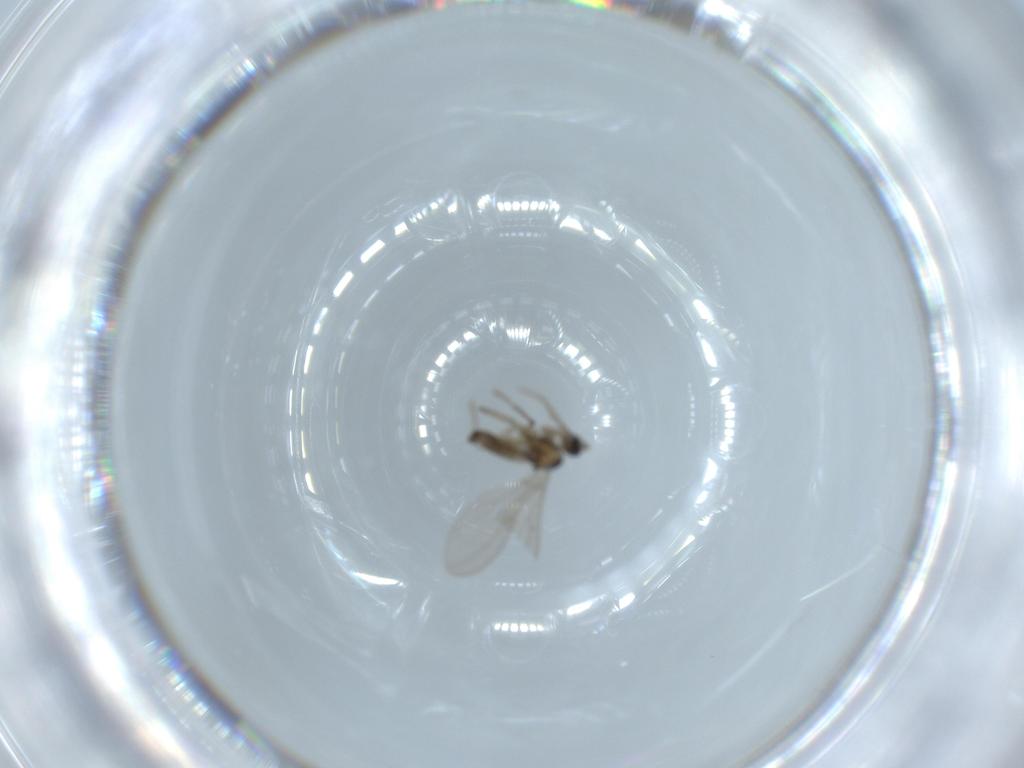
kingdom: Animalia
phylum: Arthropoda
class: Insecta
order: Diptera
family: Cecidomyiidae
